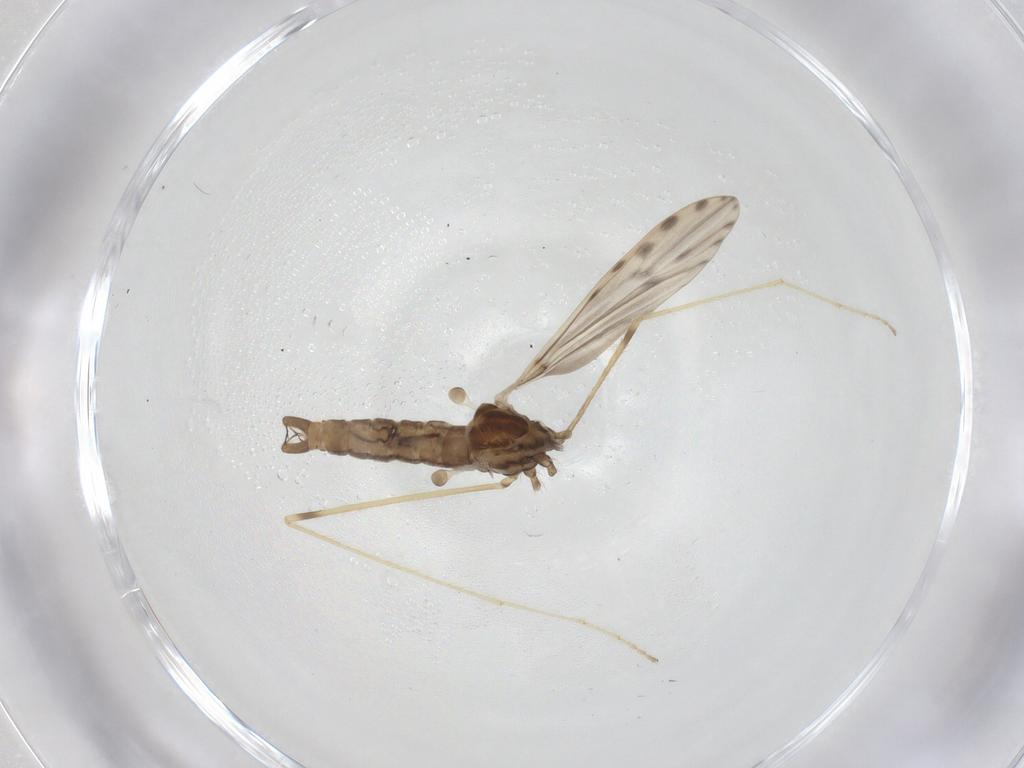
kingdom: Animalia
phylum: Arthropoda
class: Insecta
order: Diptera
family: Limoniidae
